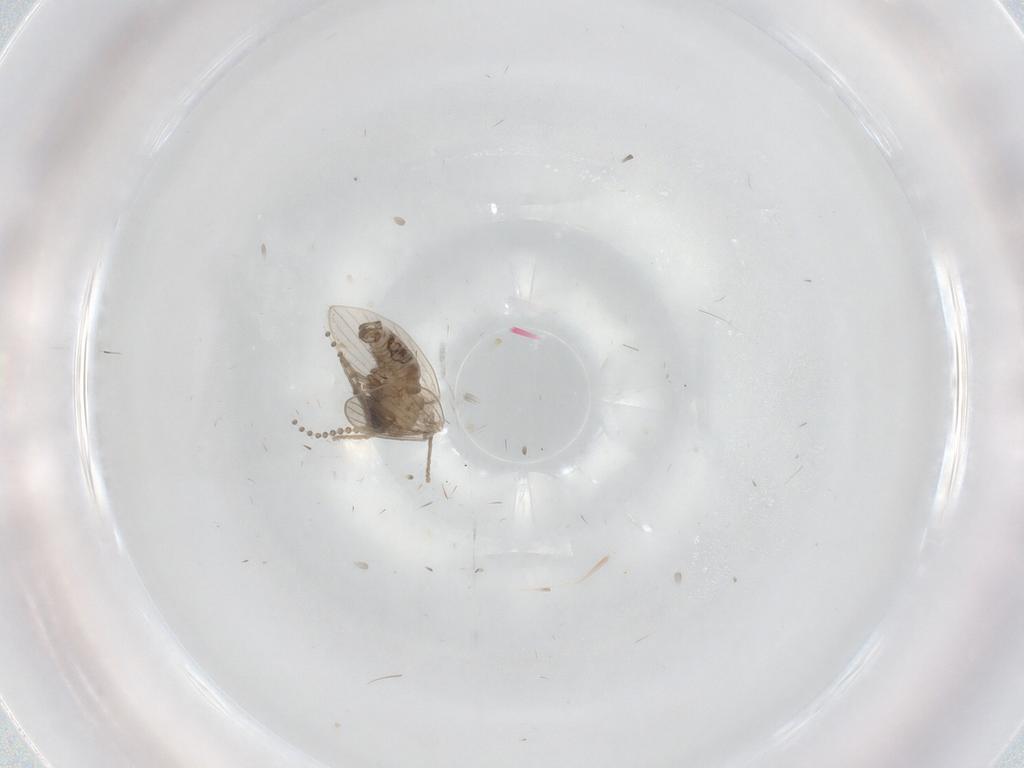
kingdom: Animalia
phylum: Arthropoda
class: Insecta
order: Diptera
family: Psychodidae
